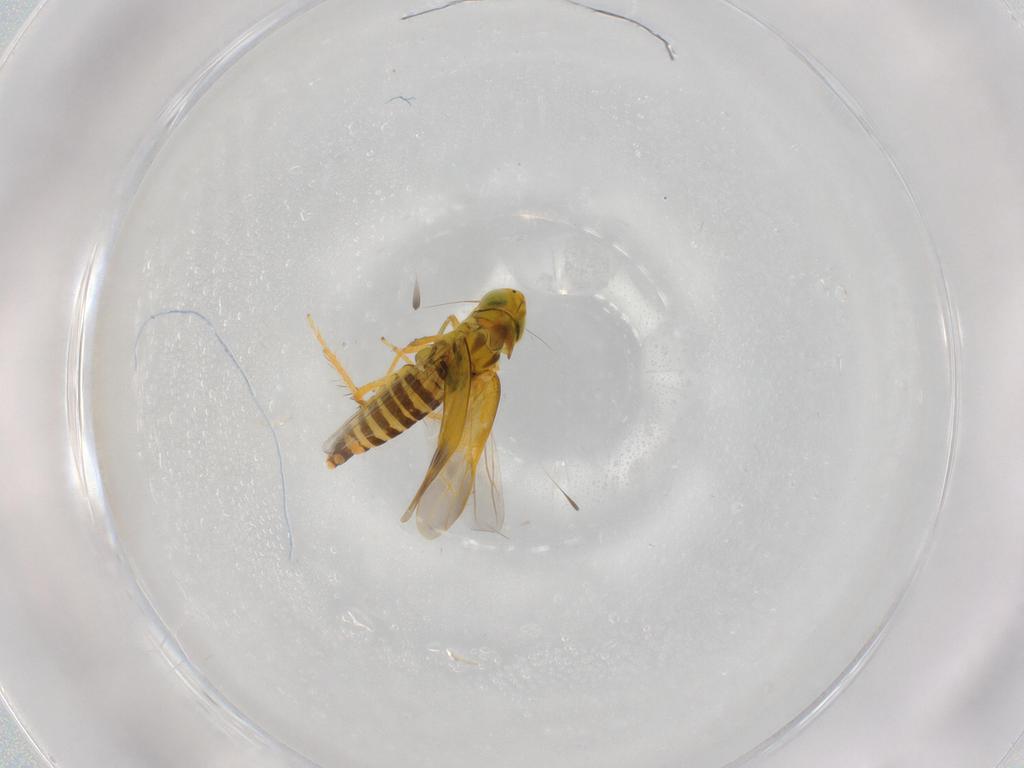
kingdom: Animalia
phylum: Arthropoda
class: Insecta
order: Hemiptera
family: Cicadellidae
